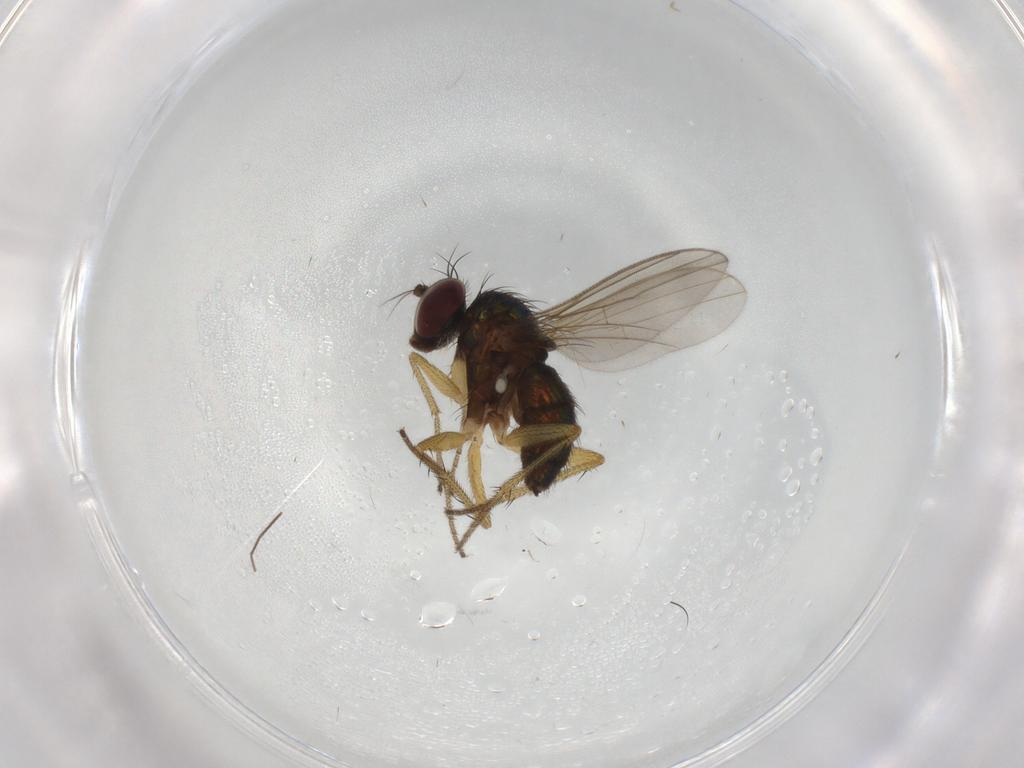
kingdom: Animalia
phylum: Arthropoda
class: Insecta
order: Diptera
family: Dolichopodidae
